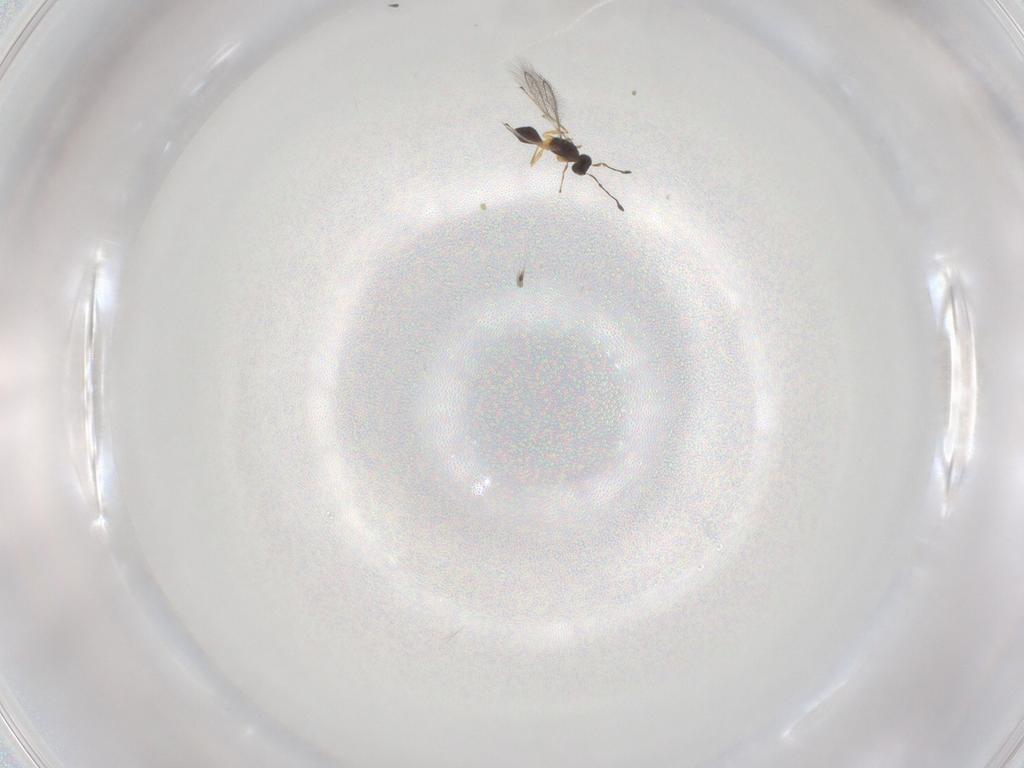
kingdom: Animalia
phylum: Arthropoda
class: Insecta
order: Hymenoptera
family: Mymaridae
